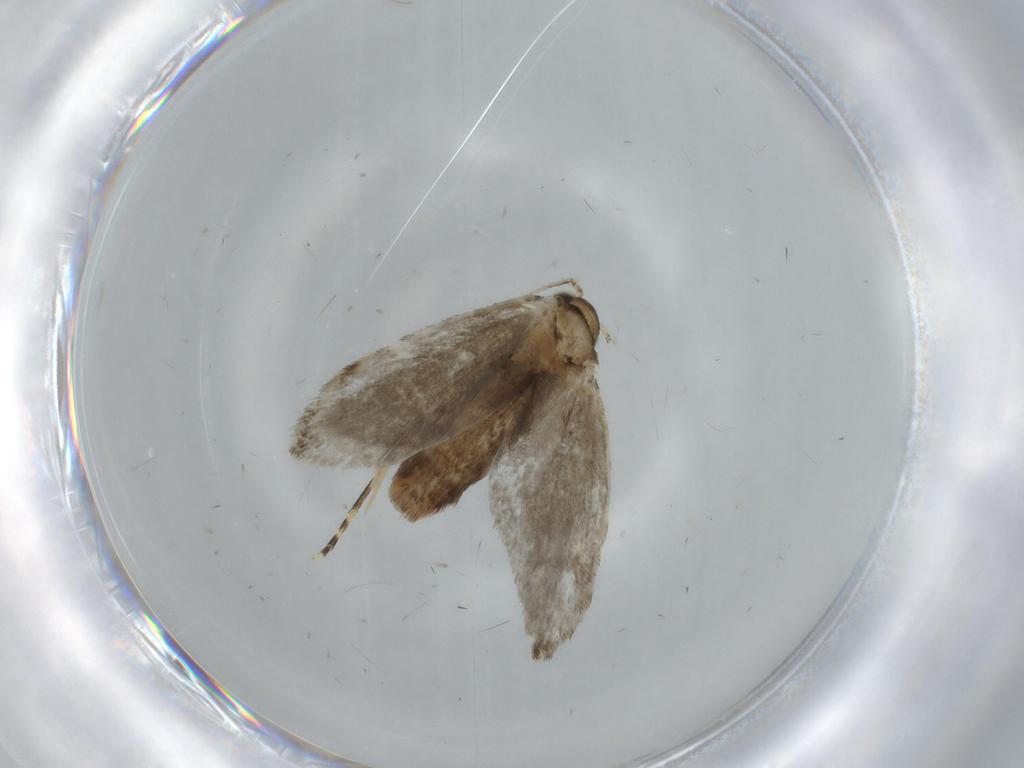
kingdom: Animalia
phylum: Arthropoda
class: Insecta
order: Lepidoptera
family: Tineidae
